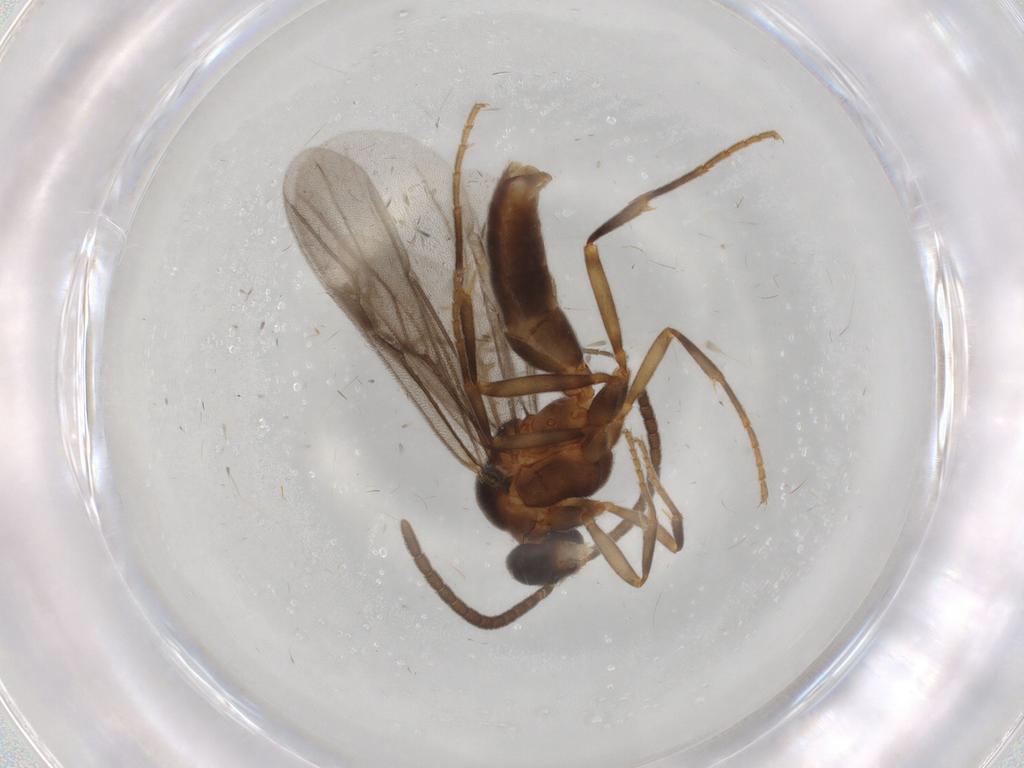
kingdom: Animalia
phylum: Arthropoda
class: Insecta
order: Hymenoptera
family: Formicidae
